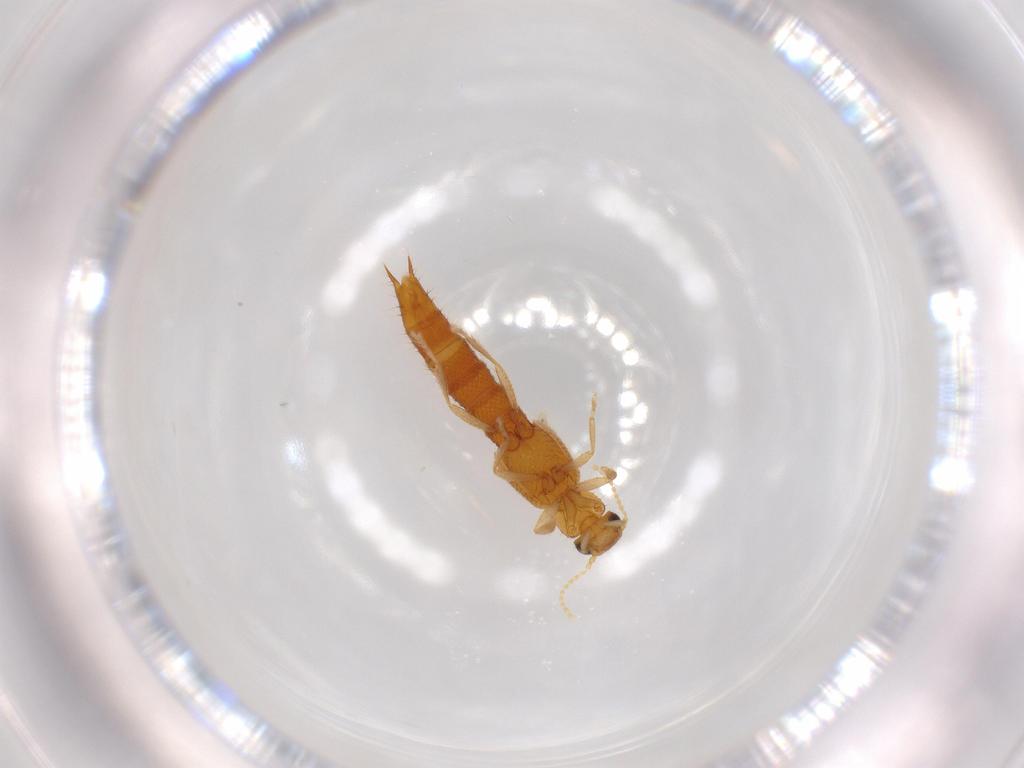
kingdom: Animalia
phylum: Arthropoda
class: Insecta
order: Coleoptera
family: Staphylinidae
